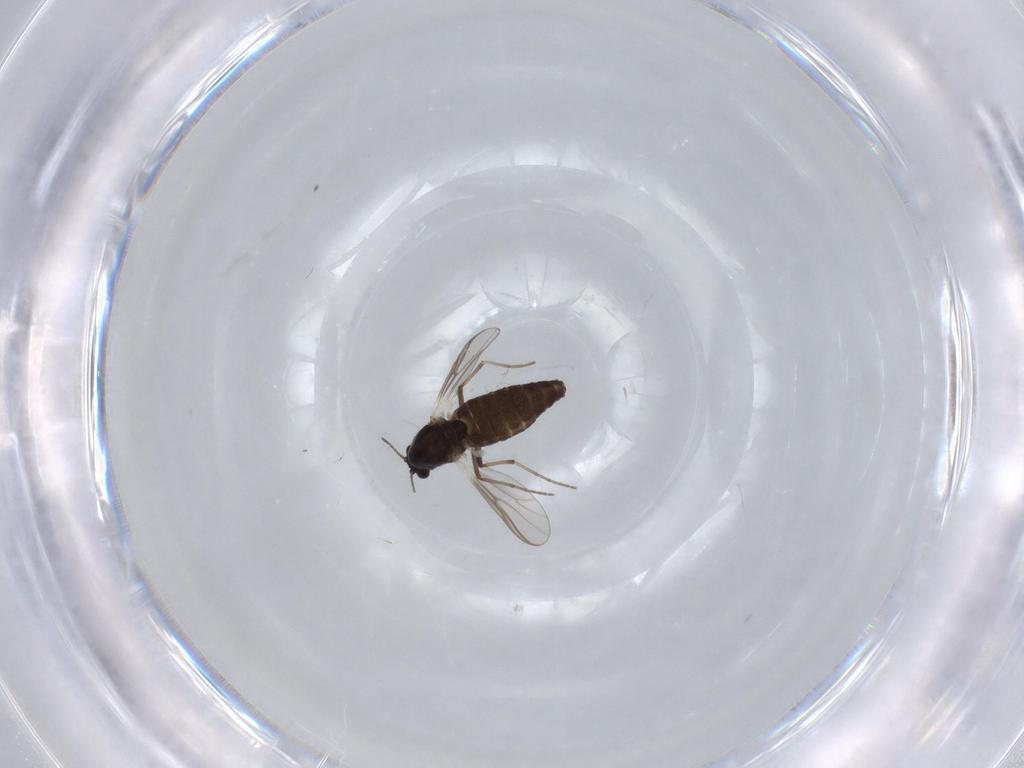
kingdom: Animalia
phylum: Arthropoda
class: Insecta
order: Diptera
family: Chironomidae
